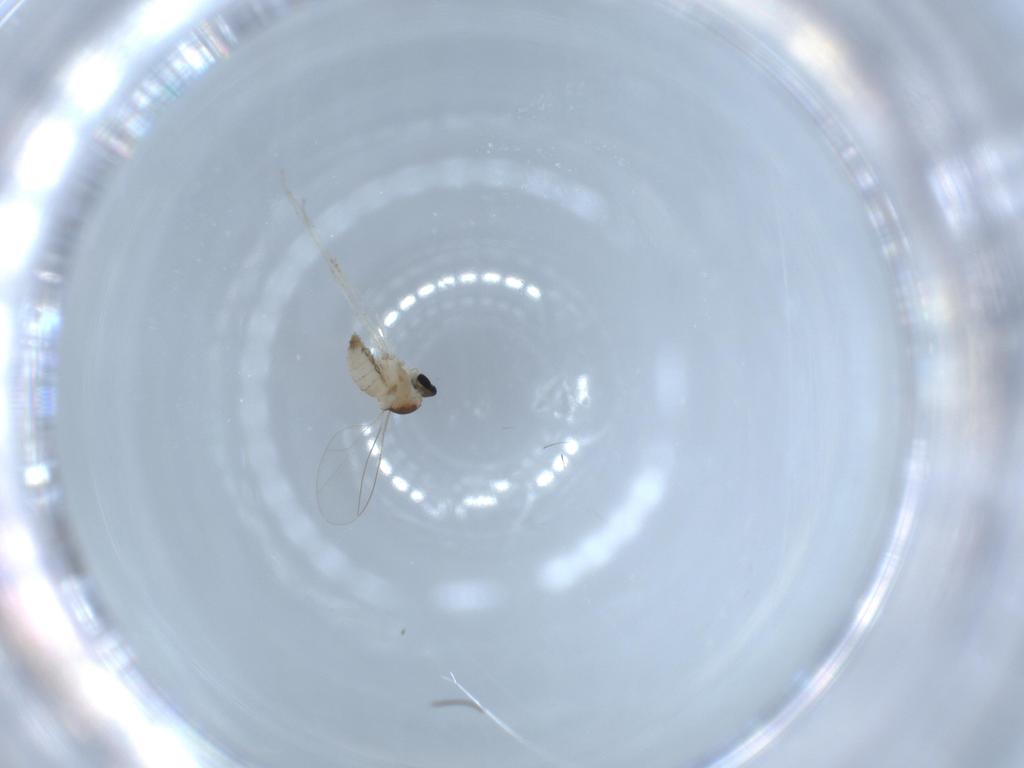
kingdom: Animalia
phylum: Arthropoda
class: Insecta
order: Diptera
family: Cecidomyiidae
